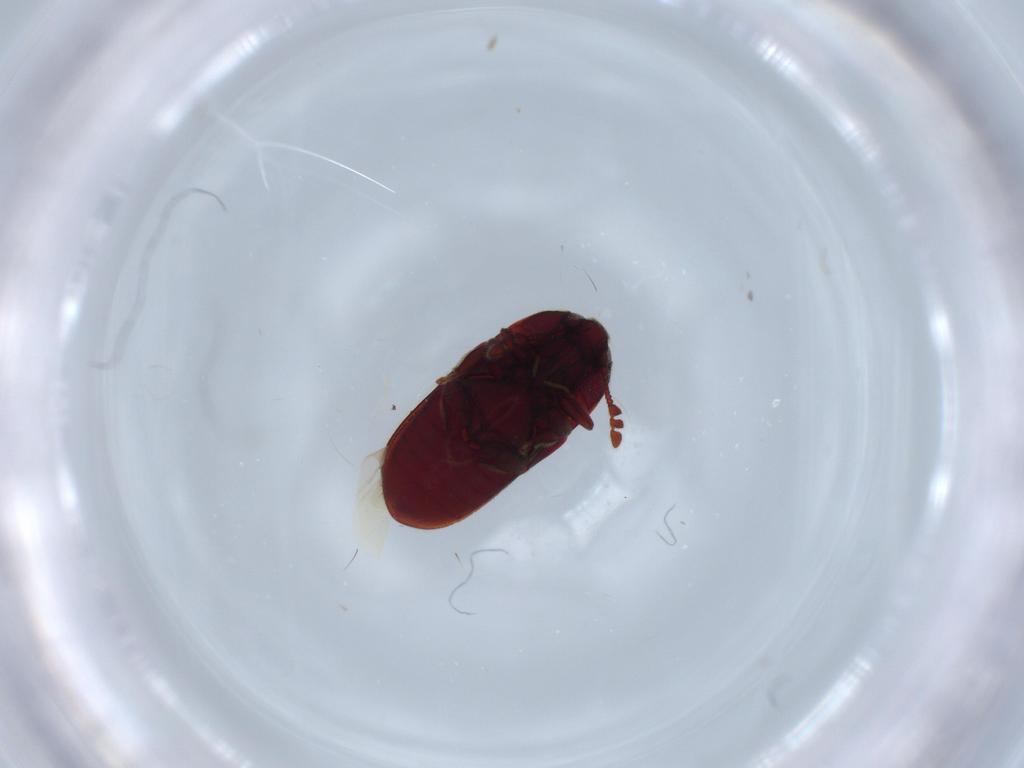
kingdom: Animalia
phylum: Arthropoda
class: Insecta
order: Coleoptera
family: Throscidae
